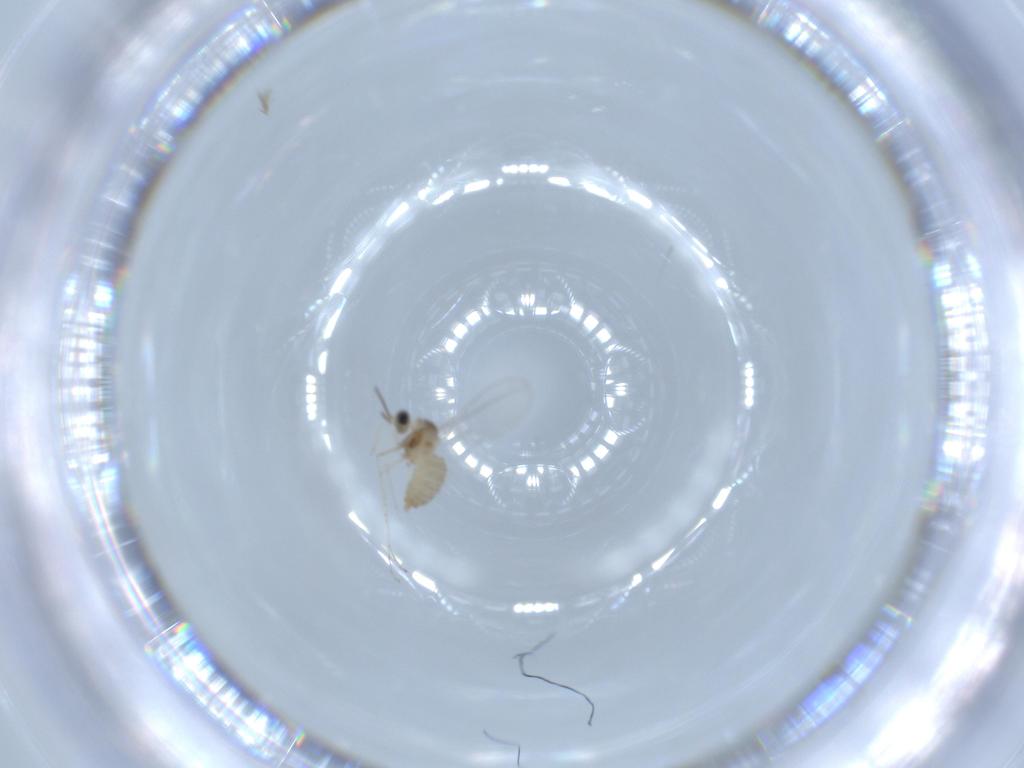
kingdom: Animalia
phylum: Arthropoda
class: Insecta
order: Diptera
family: Cecidomyiidae
